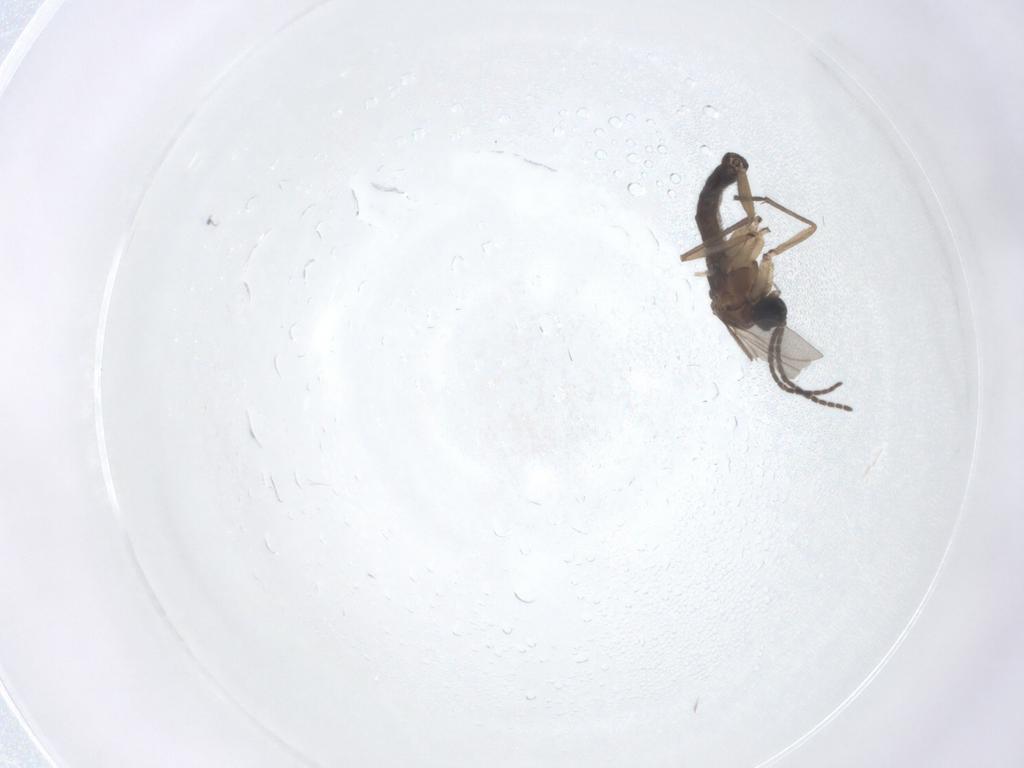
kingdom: Animalia
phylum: Arthropoda
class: Insecta
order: Diptera
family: Sciaridae
